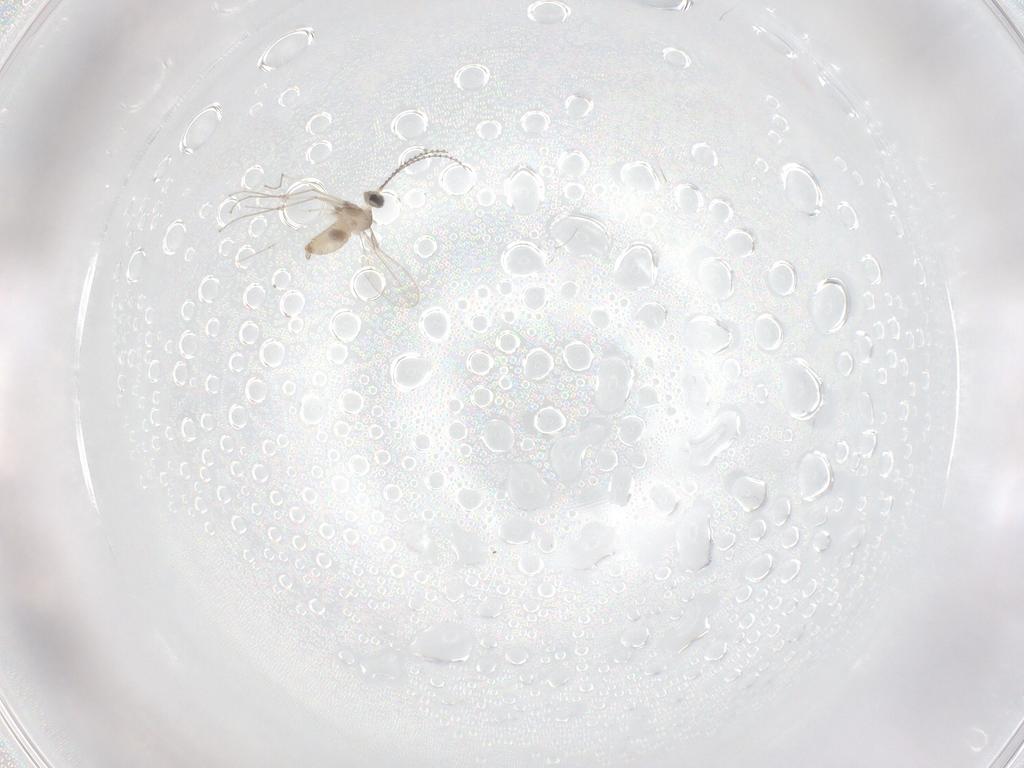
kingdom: Animalia
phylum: Arthropoda
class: Insecta
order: Diptera
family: Cecidomyiidae
